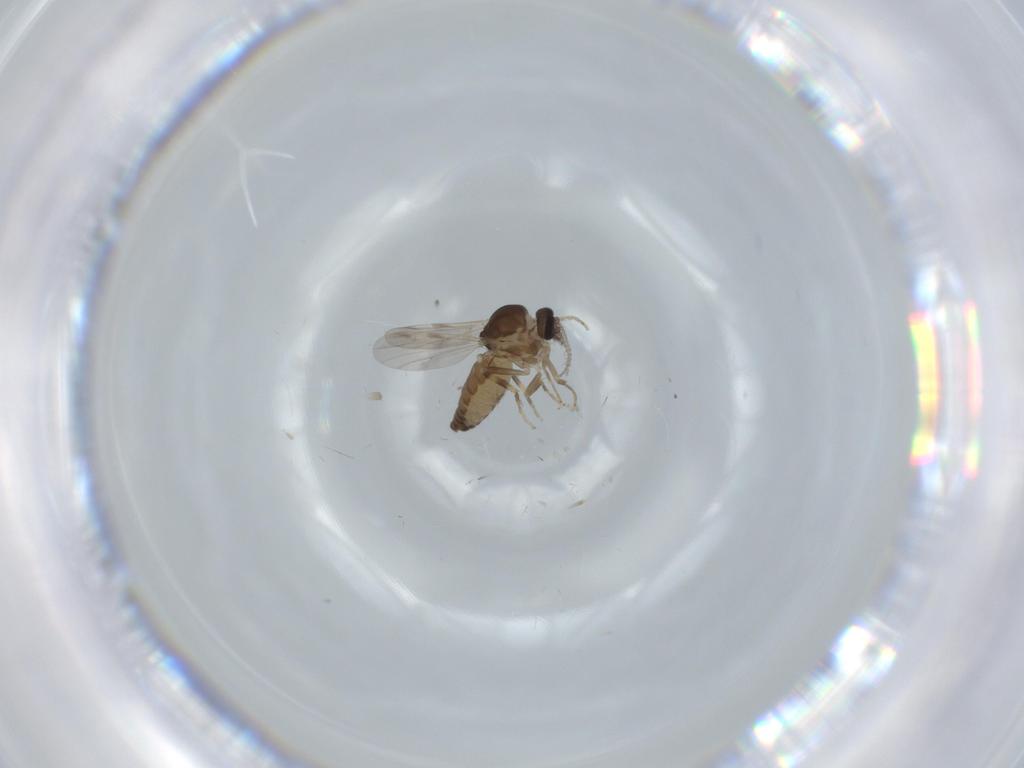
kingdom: Animalia
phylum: Arthropoda
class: Insecta
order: Diptera
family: Ceratopogonidae
